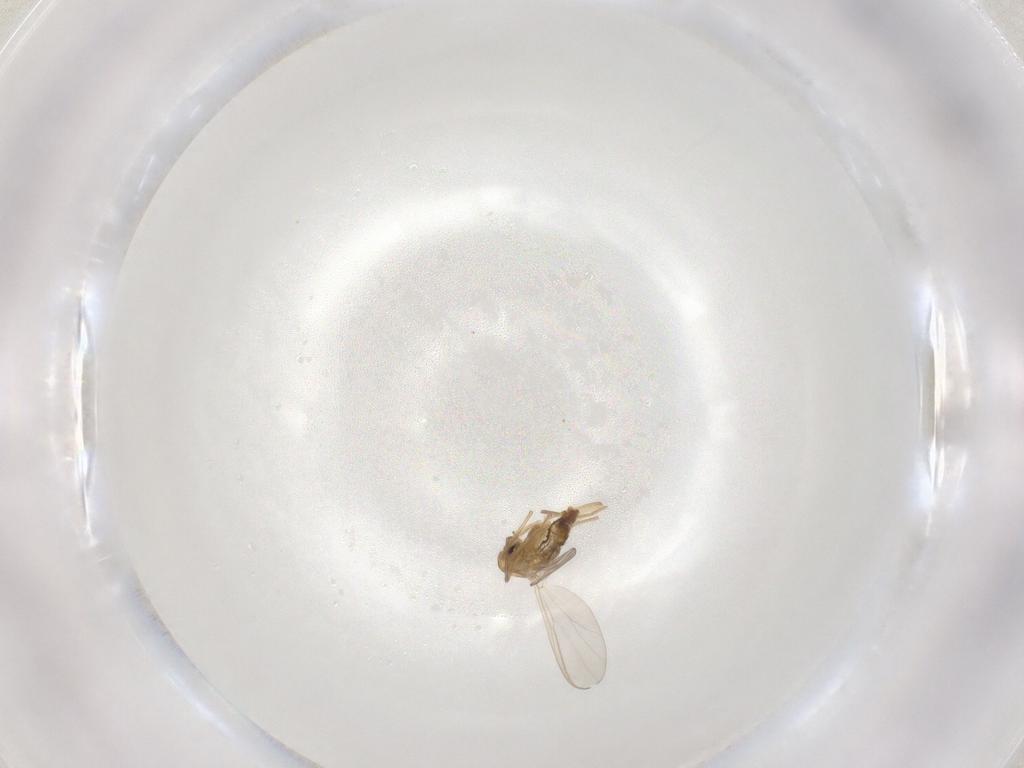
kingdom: Animalia
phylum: Arthropoda
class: Insecta
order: Diptera
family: Chironomidae
